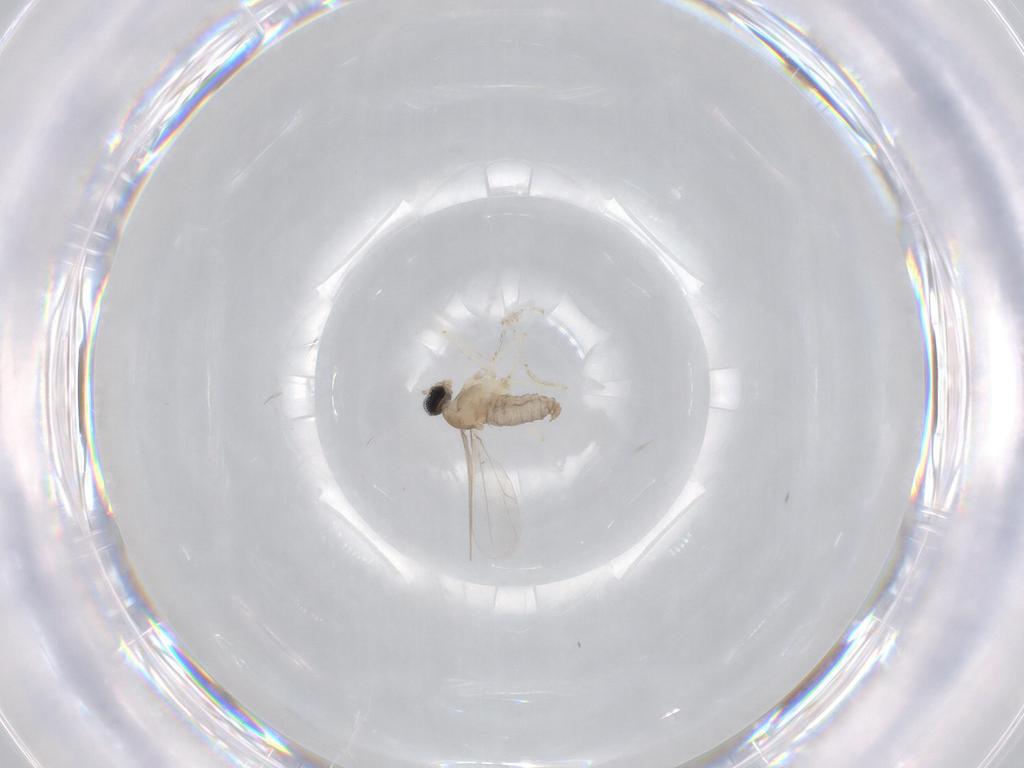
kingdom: Animalia
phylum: Arthropoda
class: Insecta
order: Diptera
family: Cecidomyiidae
